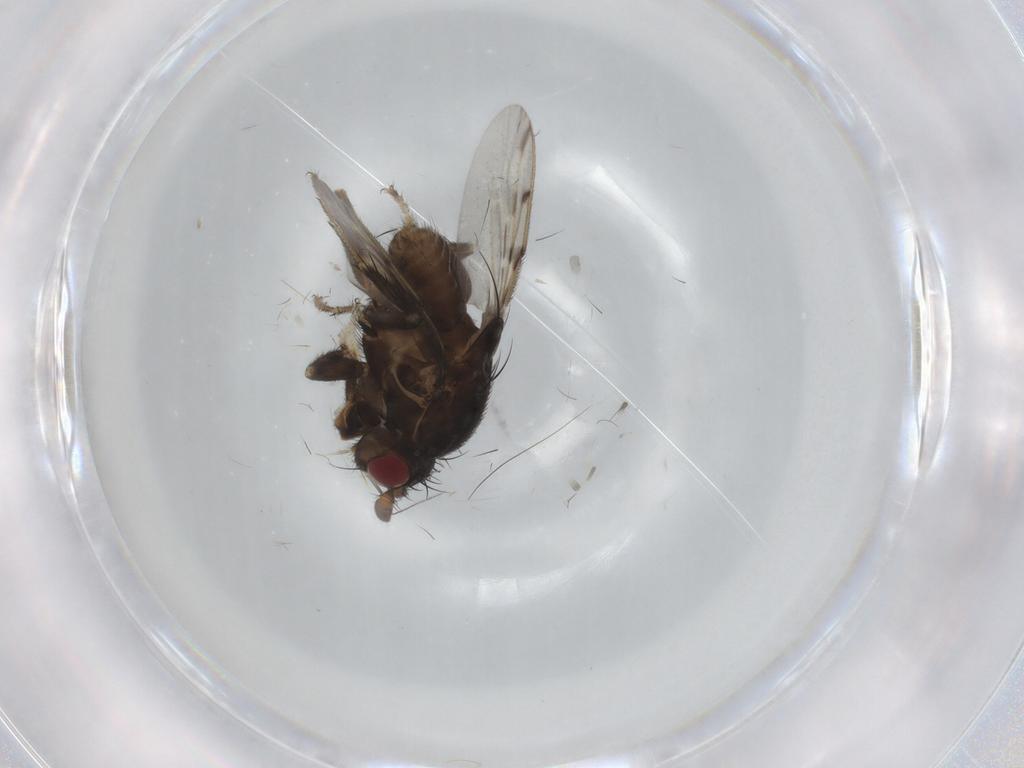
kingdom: Animalia
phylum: Arthropoda
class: Insecta
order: Diptera
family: Sphaeroceridae
